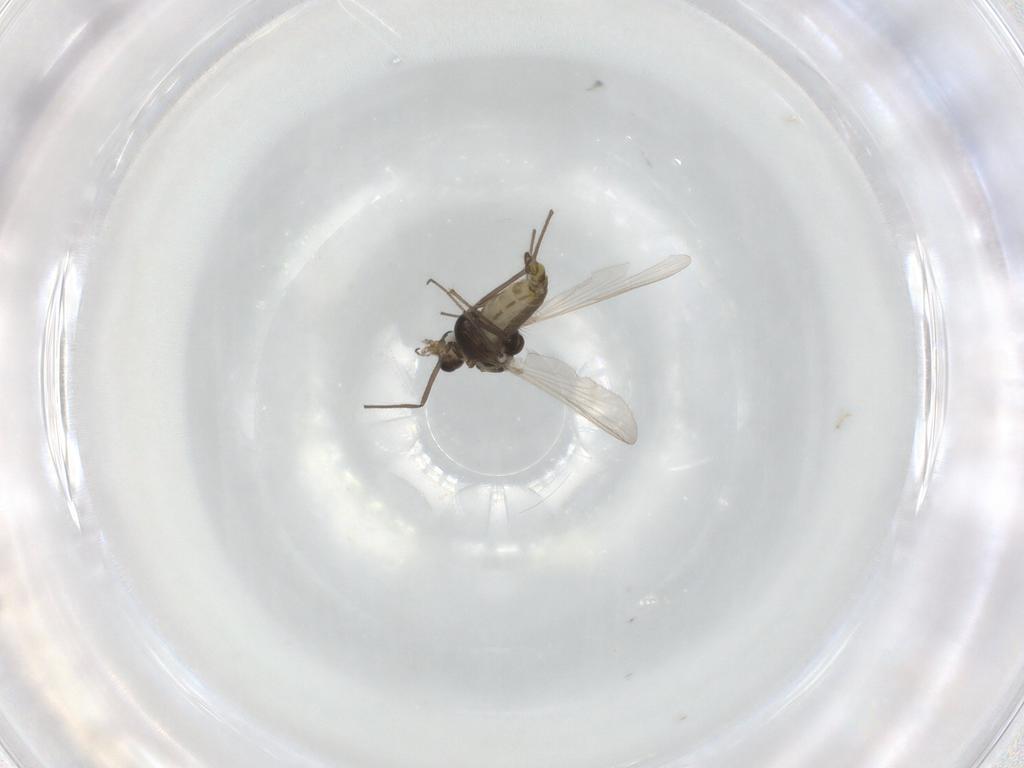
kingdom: Animalia
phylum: Arthropoda
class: Insecta
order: Diptera
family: Chironomidae
